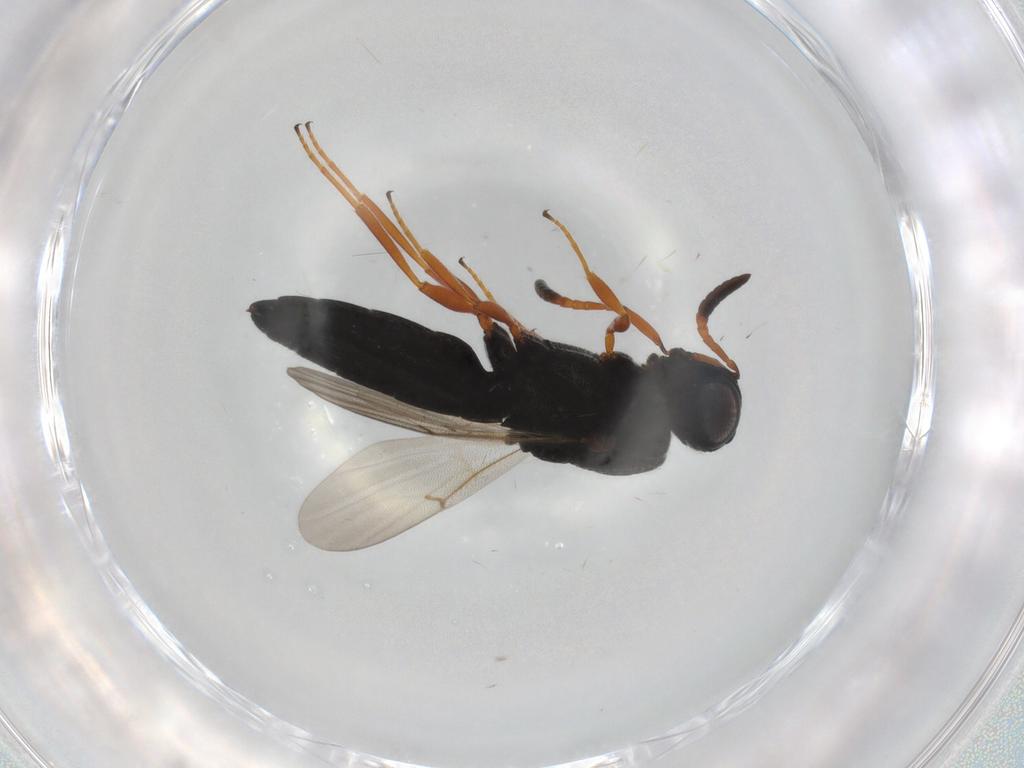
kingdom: Animalia
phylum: Arthropoda
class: Insecta
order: Hymenoptera
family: Scelionidae
